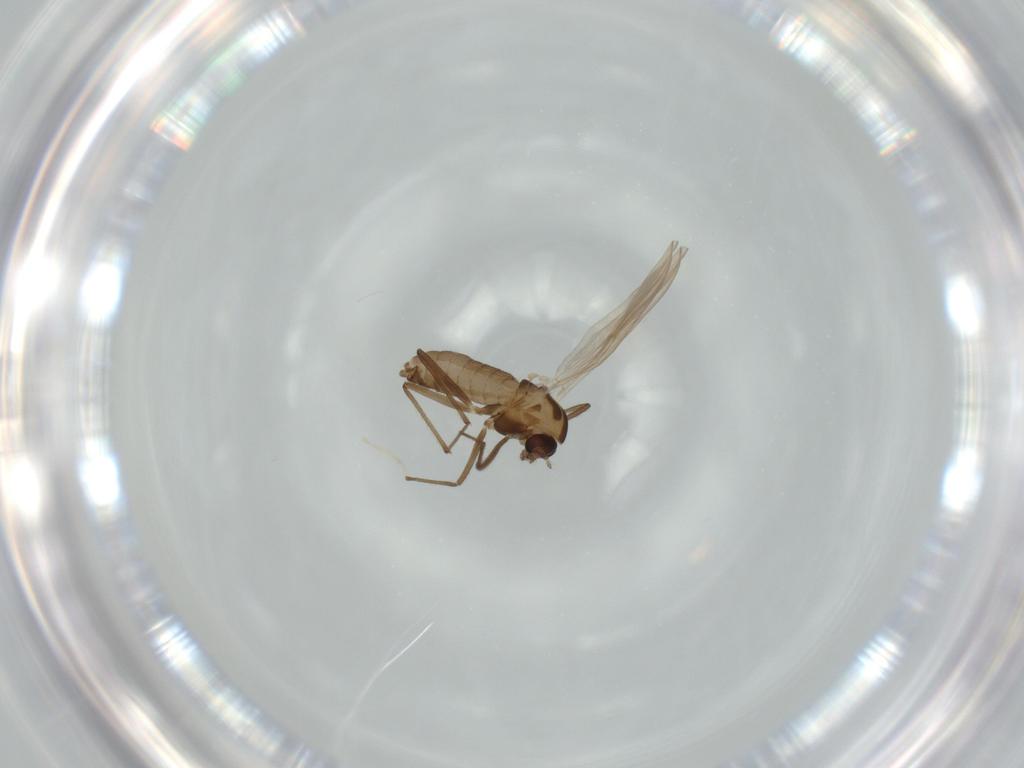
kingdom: Animalia
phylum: Arthropoda
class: Insecta
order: Diptera
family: Chironomidae
